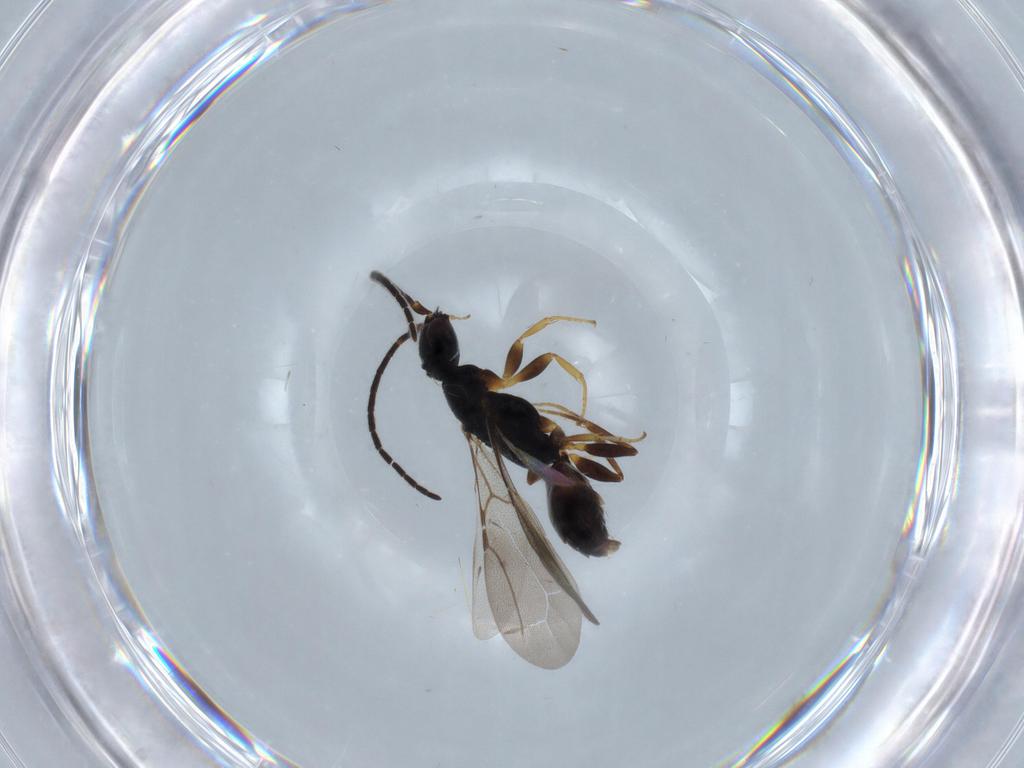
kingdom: Animalia
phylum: Arthropoda
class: Insecta
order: Hymenoptera
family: Bethylidae
